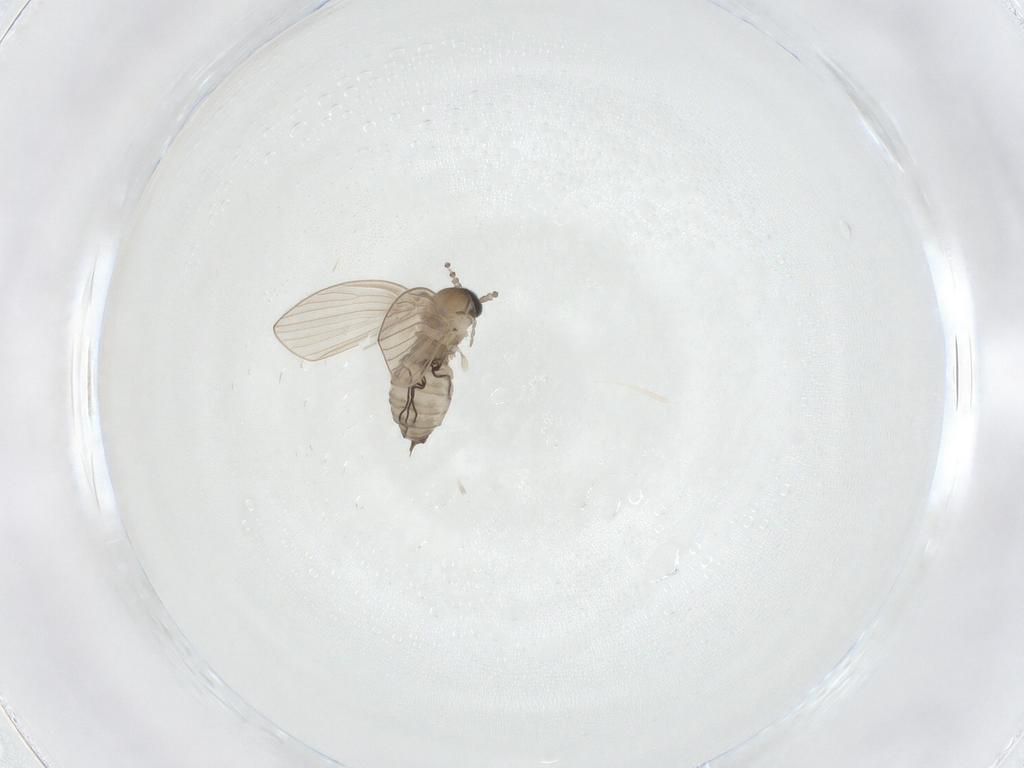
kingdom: Animalia
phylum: Arthropoda
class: Insecta
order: Diptera
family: Psychodidae
